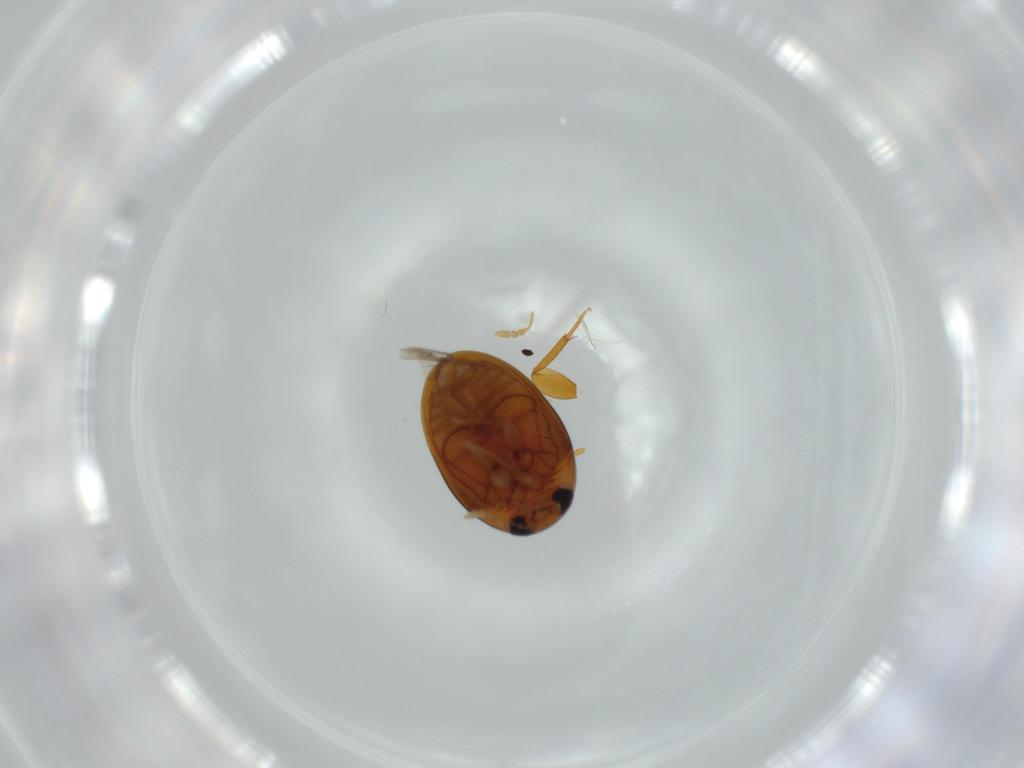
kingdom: Animalia
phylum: Arthropoda
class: Insecta
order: Coleoptera
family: Phalacridae
